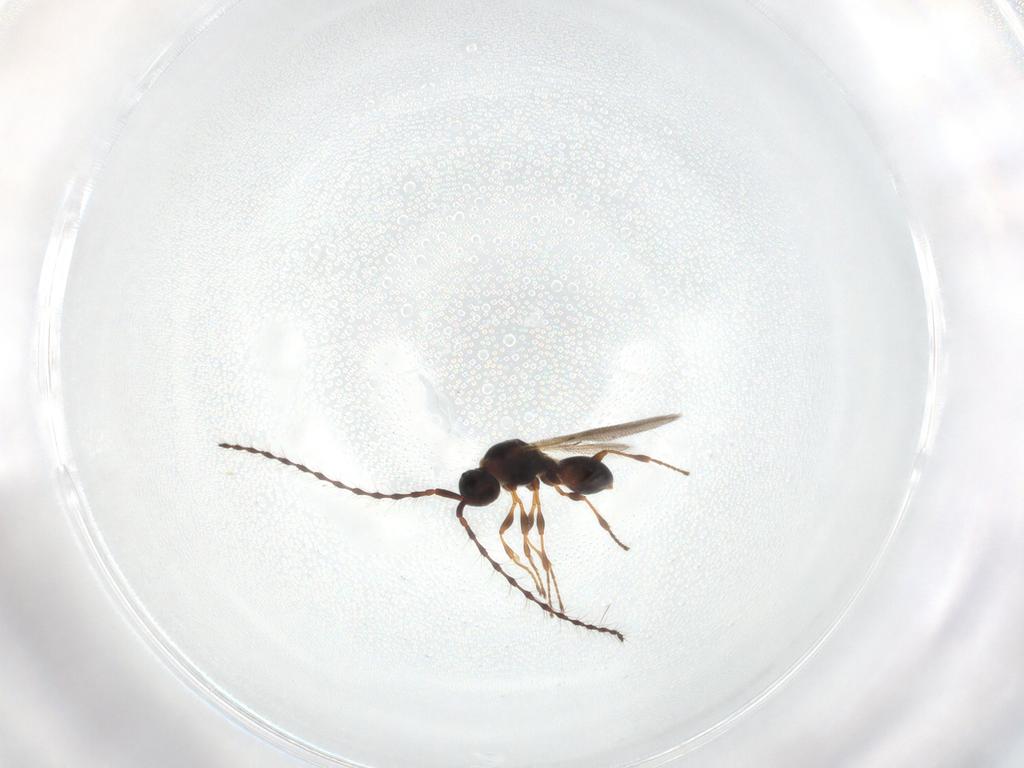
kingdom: Animalia
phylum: Arthropoda
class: Insecta
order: Hymenoptera
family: Diapriidae
